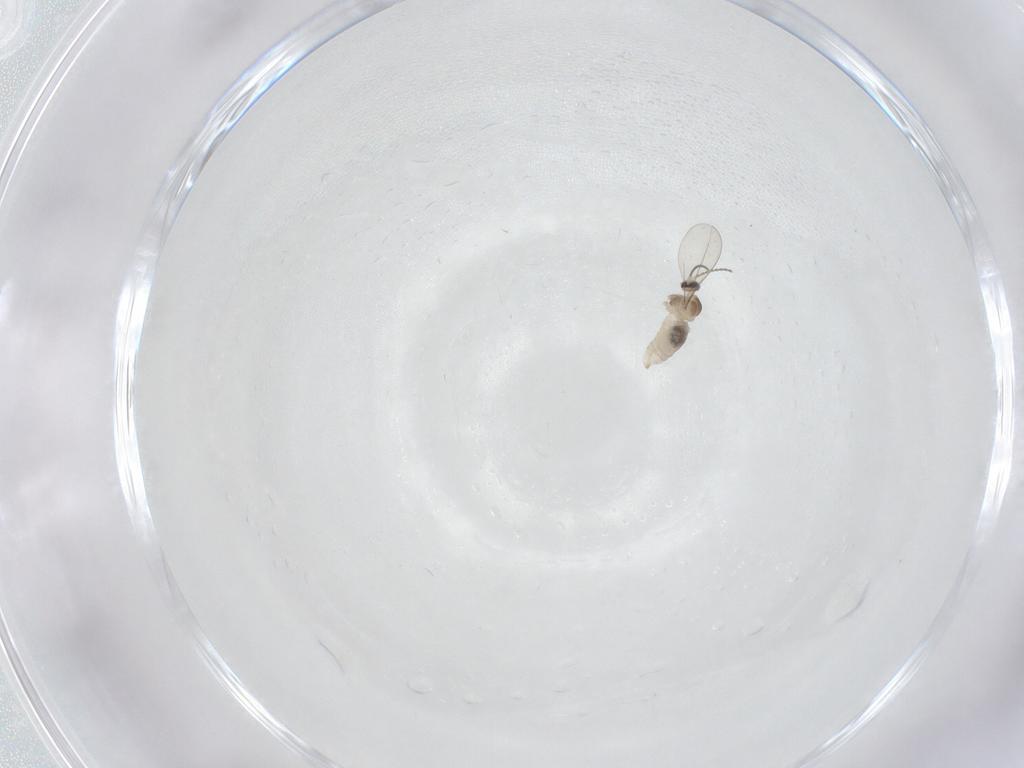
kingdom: Animalia
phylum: Arthropoda
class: Insecta
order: Diptera
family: Cecidomyiidae
